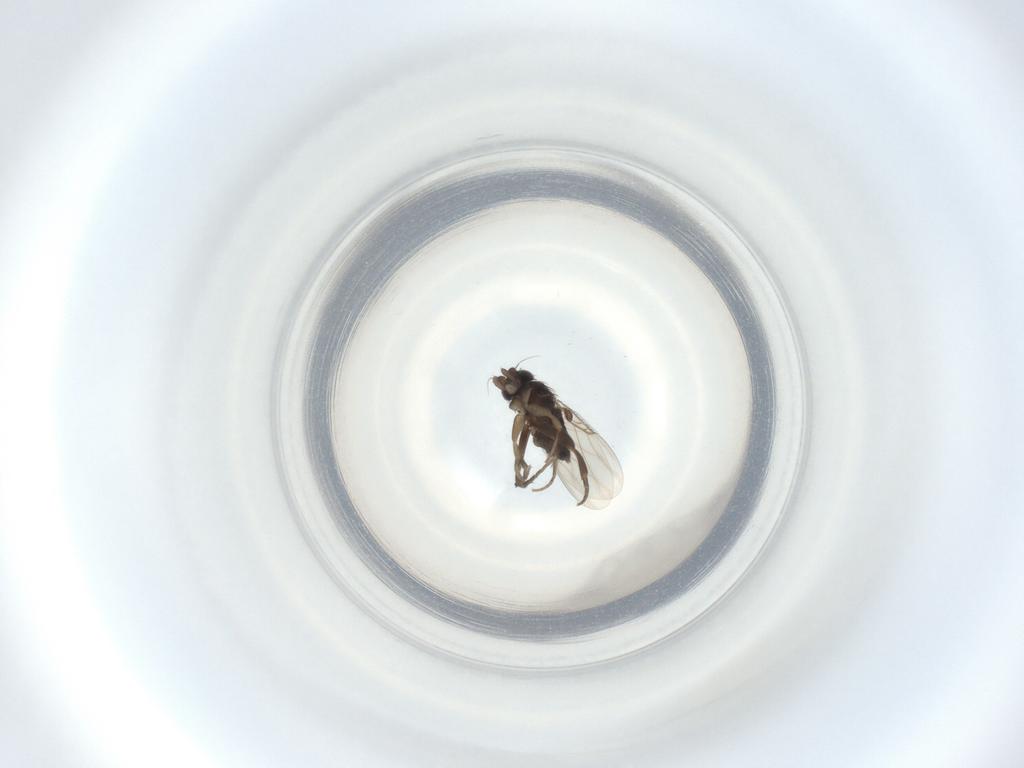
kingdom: Animalia
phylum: Arthropoda
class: Insecta
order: Diptera
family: Phoridae
